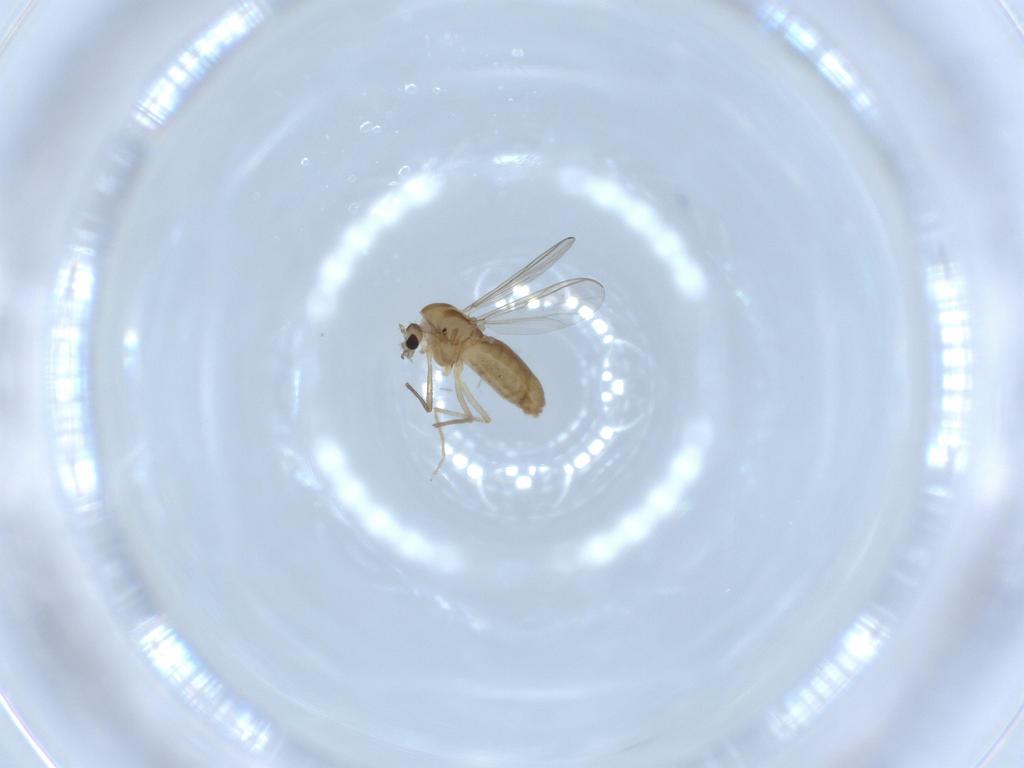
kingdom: Animalia
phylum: Arthropoda
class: Insecta
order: Diptera
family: Chironomidae
